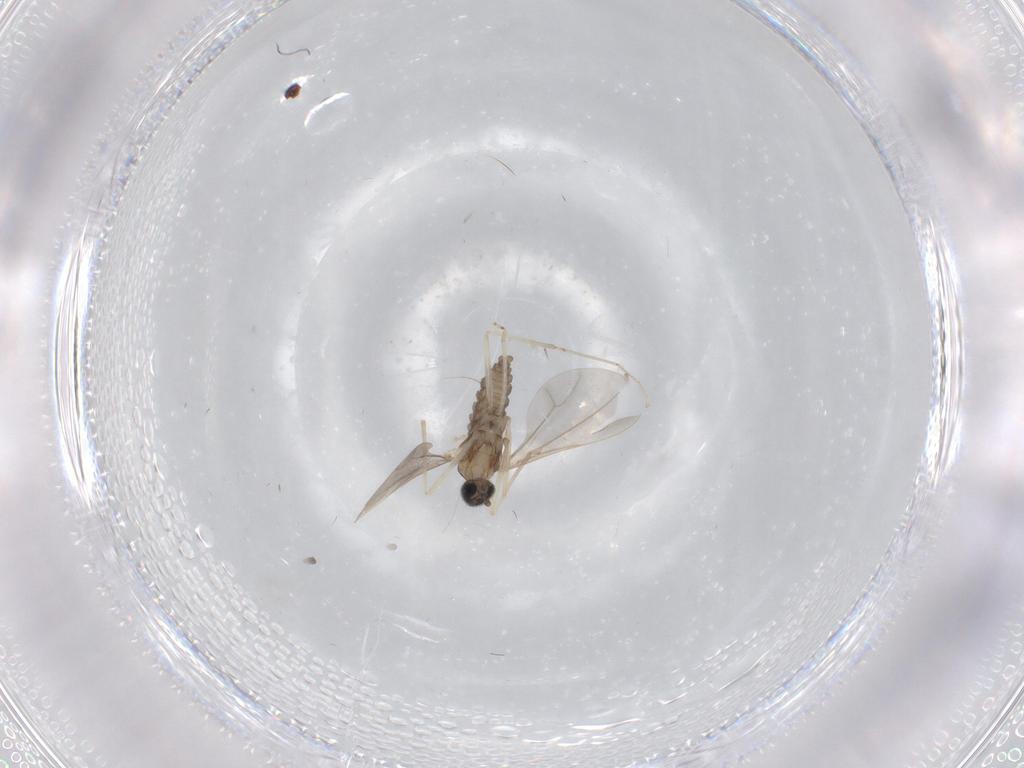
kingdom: Animalia
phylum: Arthropoda
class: Insecta
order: Diptera
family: Cecidomyiidae
